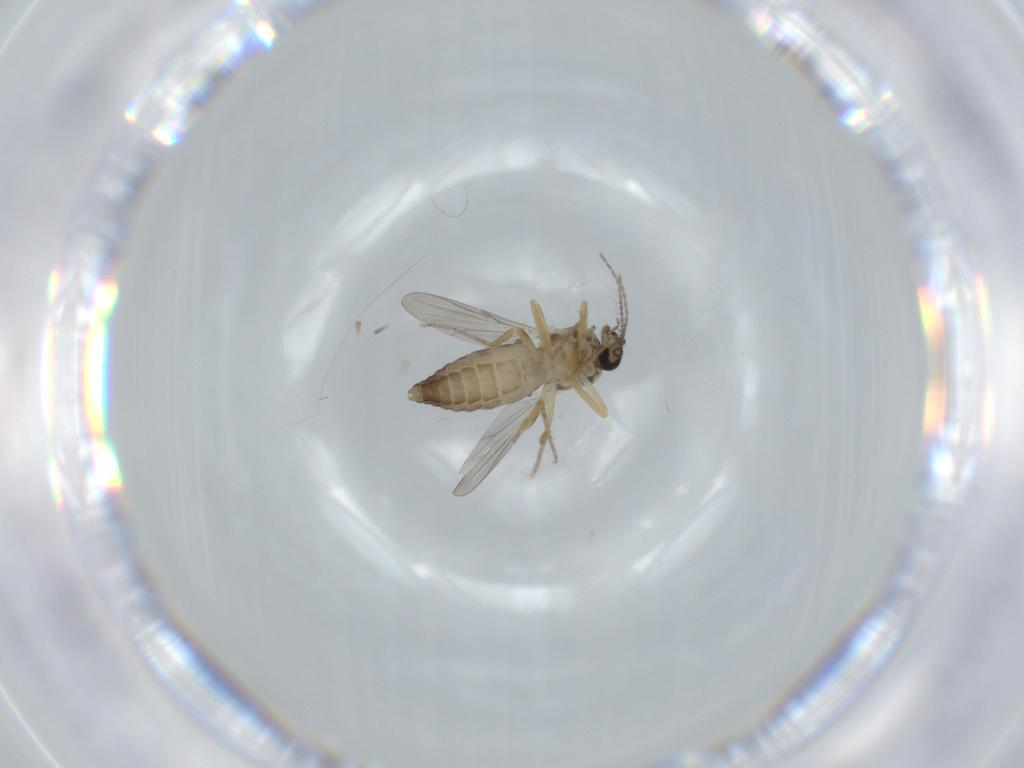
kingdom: Animalia
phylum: Arthropoda
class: Insecta
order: Diptera
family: Ceratopogonidae
